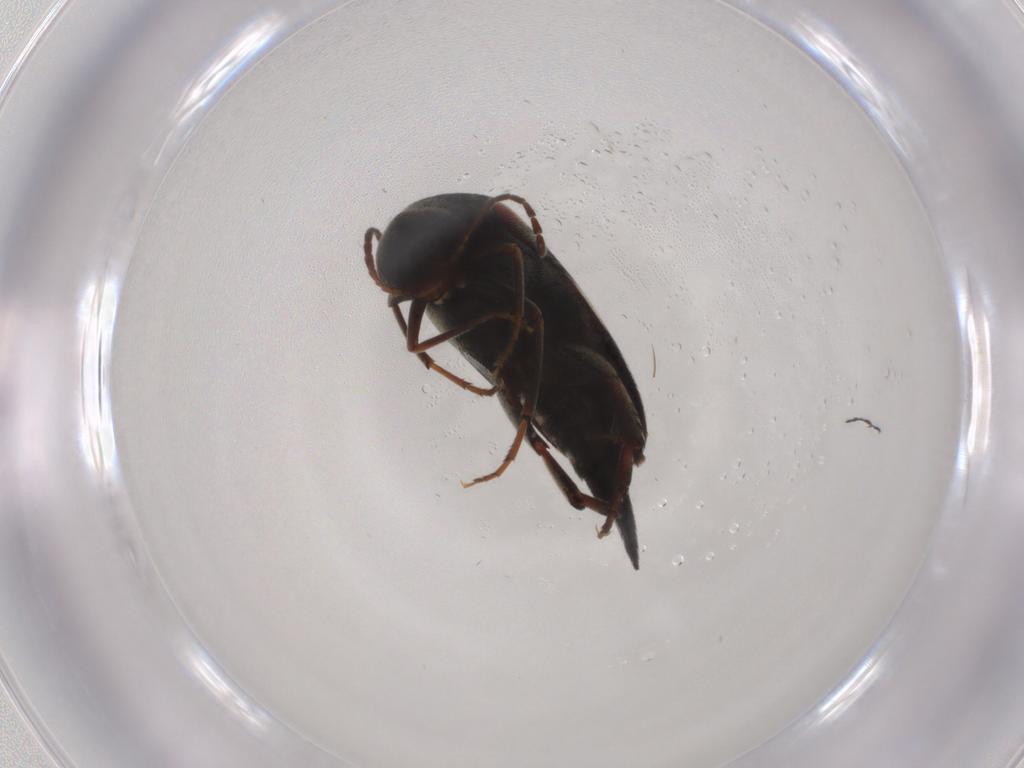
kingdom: Animalia
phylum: Arthropoda
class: Insecta
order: Coleoptera
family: Mordellidae
